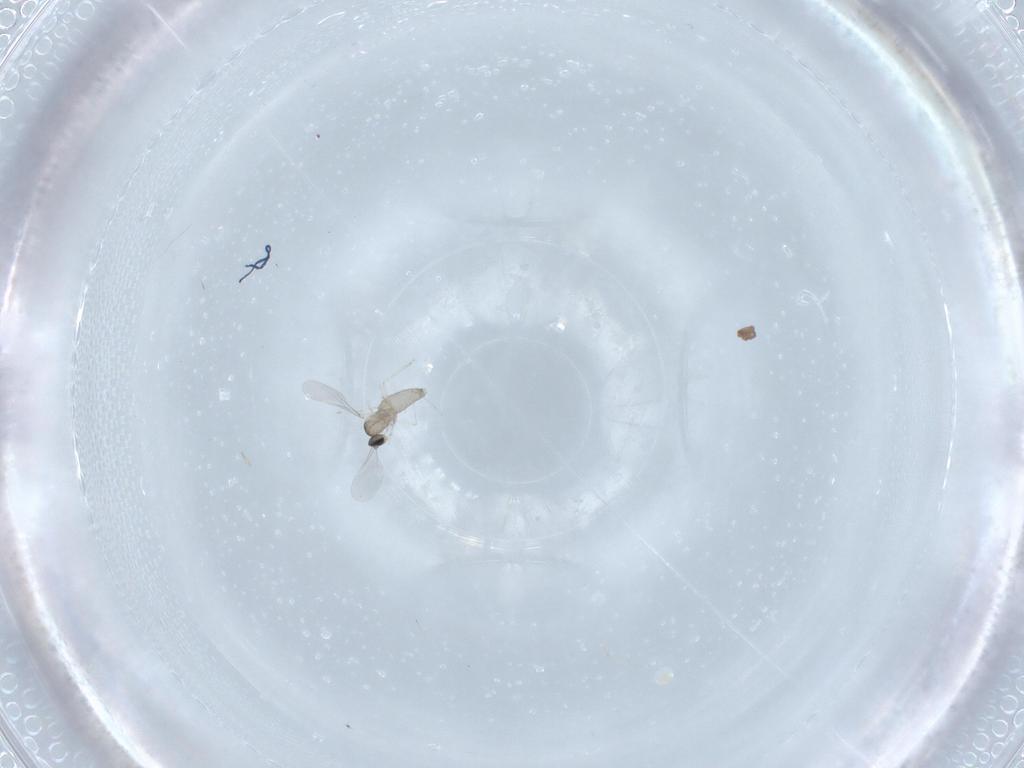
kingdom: Animalia
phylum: Arthropoda
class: Insecta
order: Diptera
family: Cecidomyiidae
